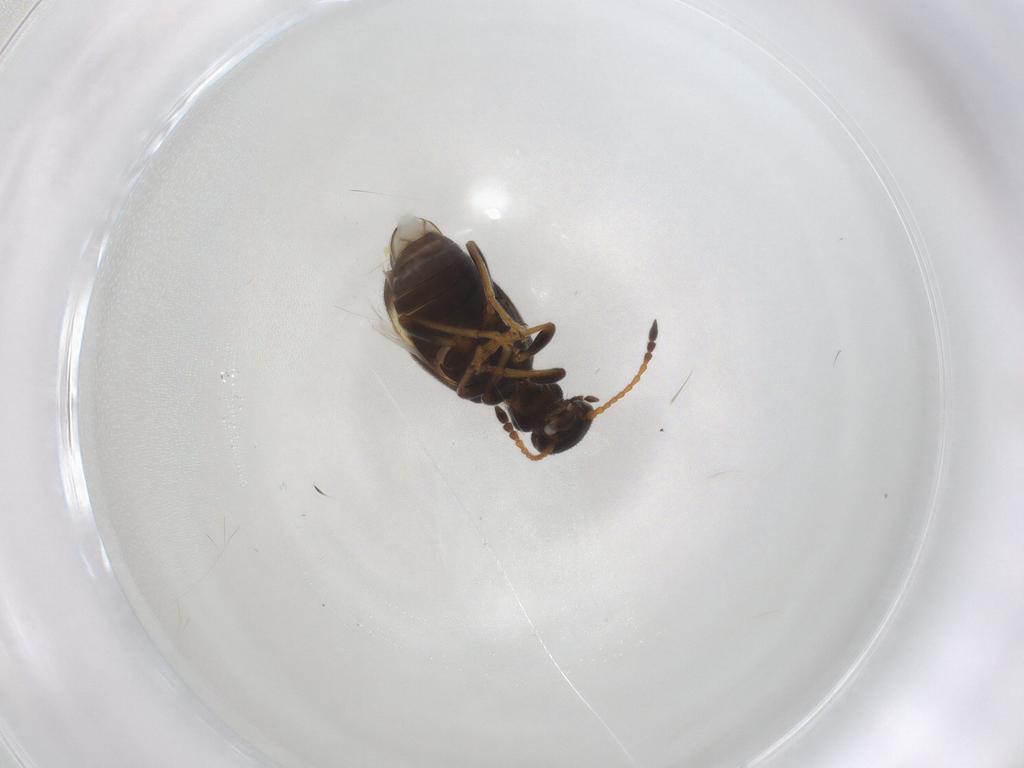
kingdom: Animalia
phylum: Arthropoda
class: Insecta
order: Coleoptera
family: Anthicidae
